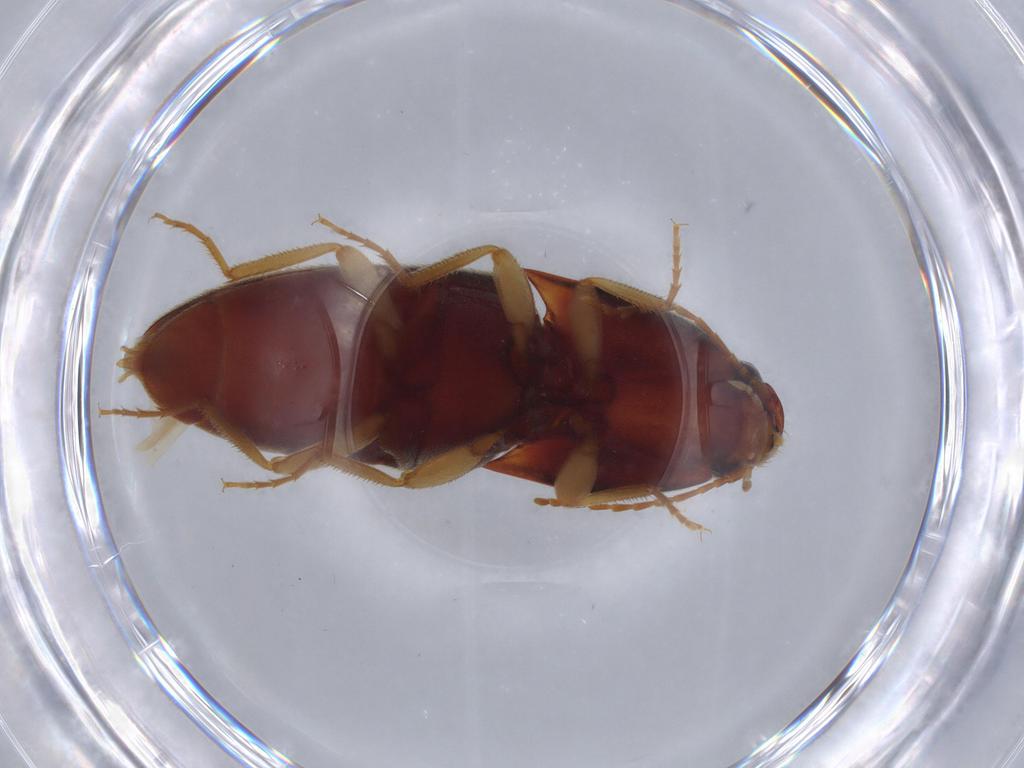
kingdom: Animalia
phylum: Arthropoda
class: Insecta
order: Coleoptera
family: Elateridae
